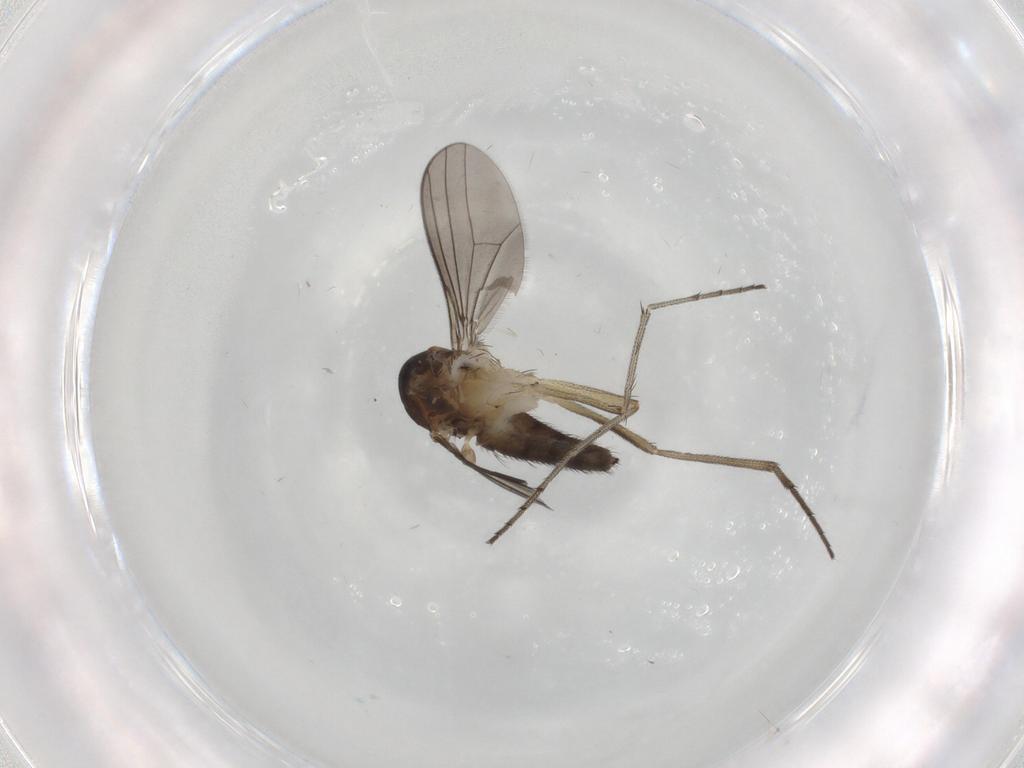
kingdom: Animalia
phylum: Arthropoda
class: Insecta
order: Diptera
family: Dolichopodidae
